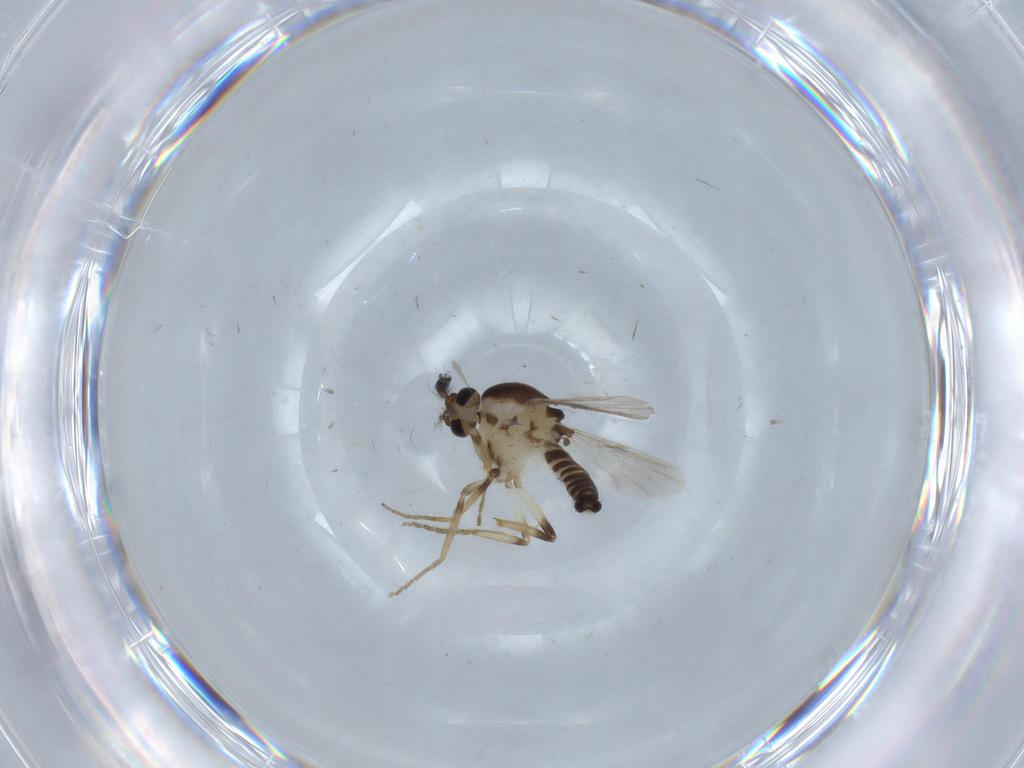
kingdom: Animalia
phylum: Arthropoda
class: Insecta
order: Diptera
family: Ceratopogonidae
